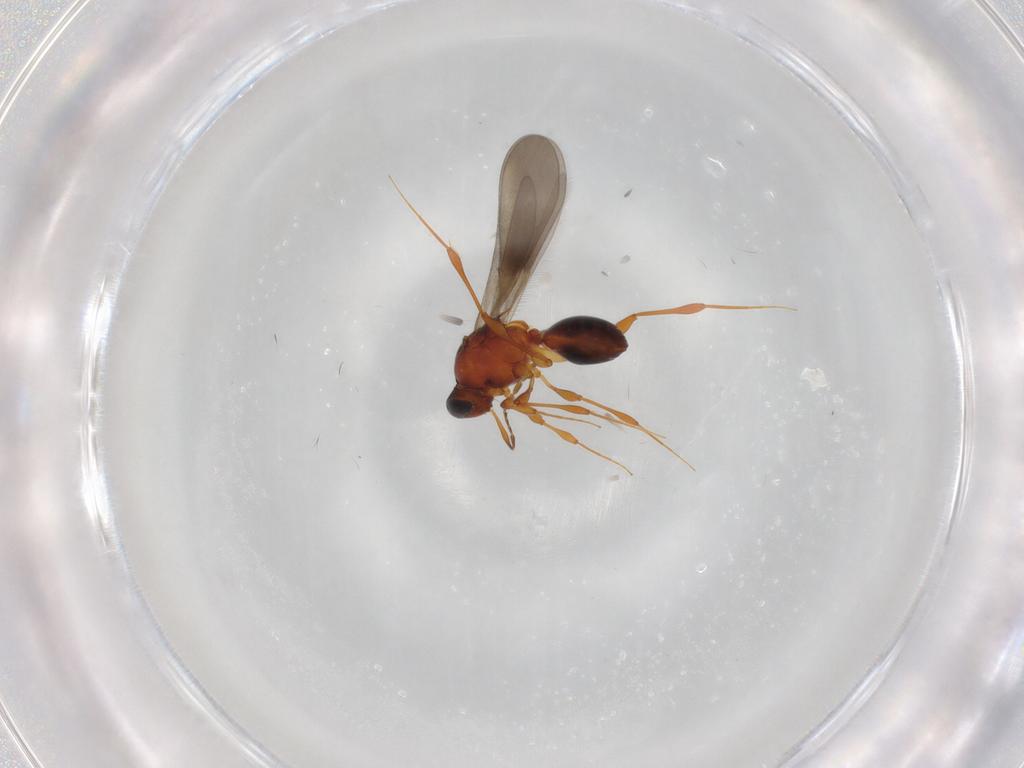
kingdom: Animalia
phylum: Arthropoda
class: Insecta
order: Hymenoptera
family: Platygastridae
